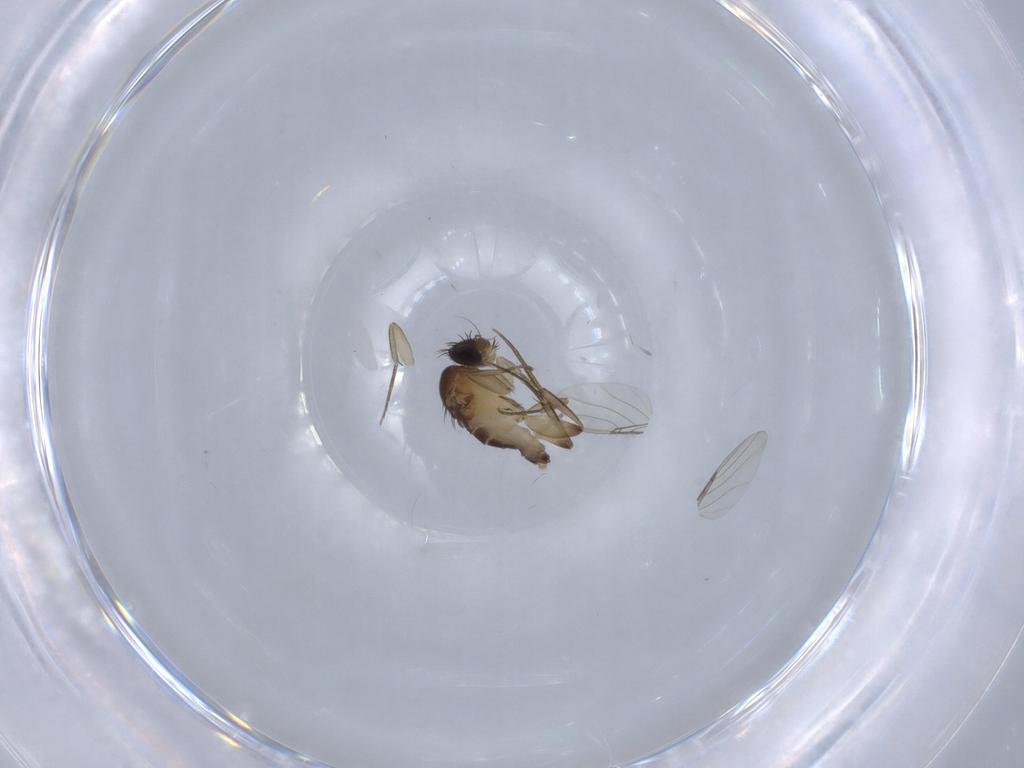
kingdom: Animalia
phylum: Arthropoda
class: Insecta
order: Diptera
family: Phoridae
